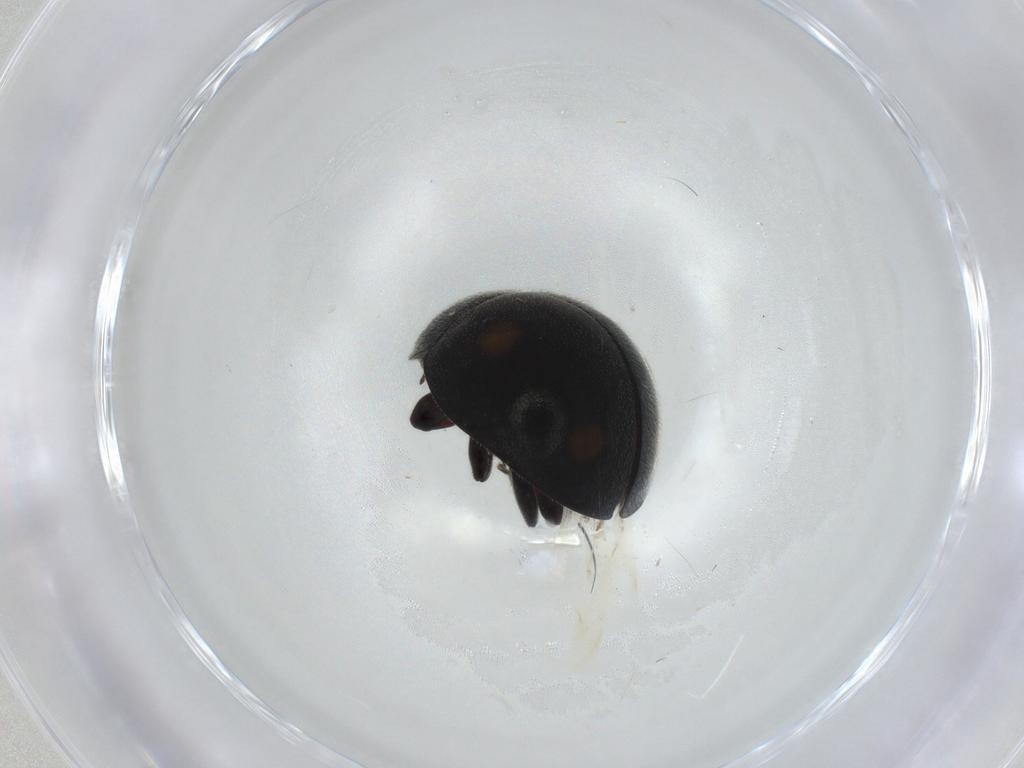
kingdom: Animalia
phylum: Arthropoda
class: Insecta
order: Coleoptera
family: Coccinellidae
